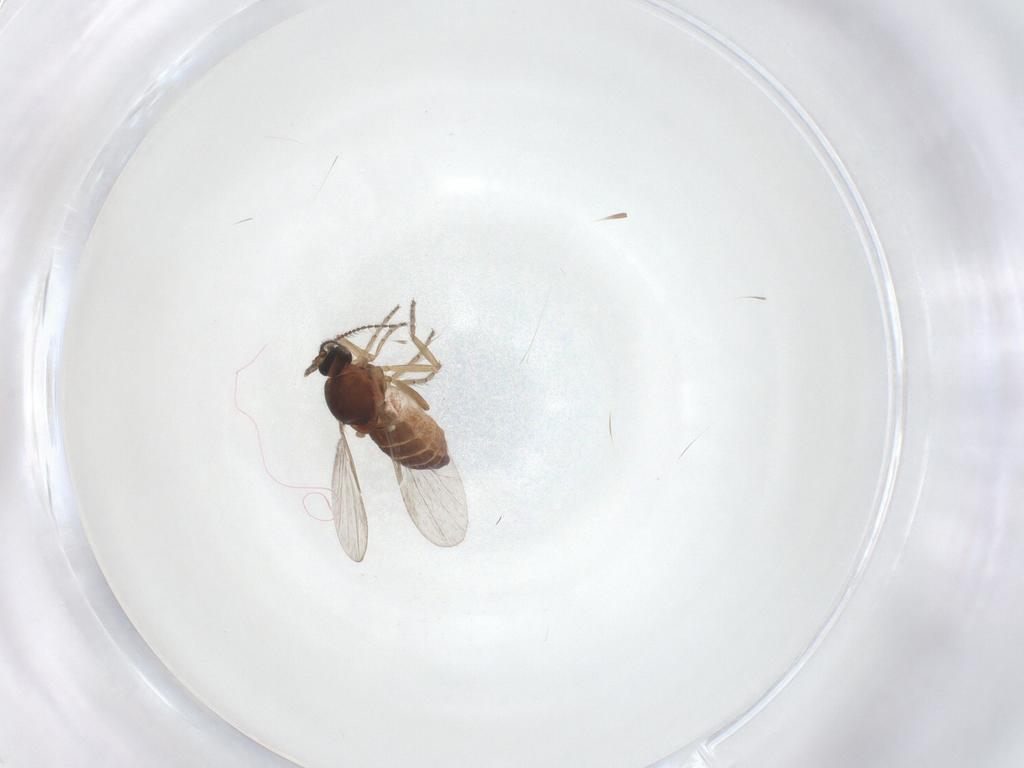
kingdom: Animalia
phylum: Arthropoda
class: Insecta
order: Diptera
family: Ceratopogonidae
